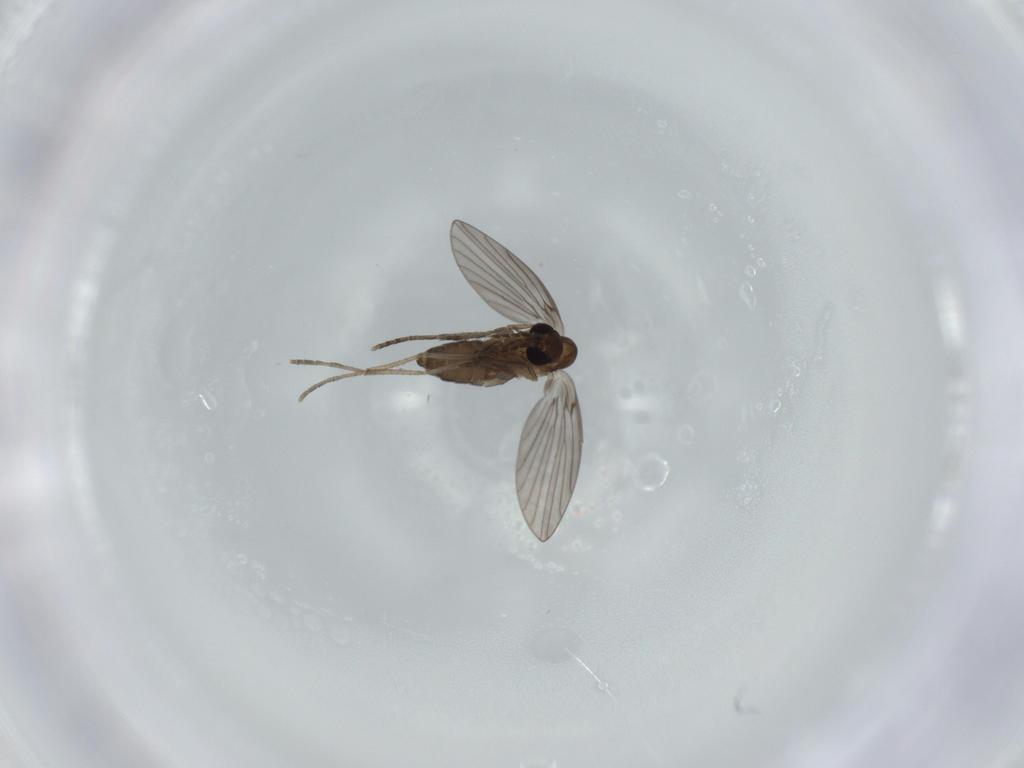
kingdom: Animalia
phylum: Arthropoda
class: Insecta
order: Diptera
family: Psychodidae
